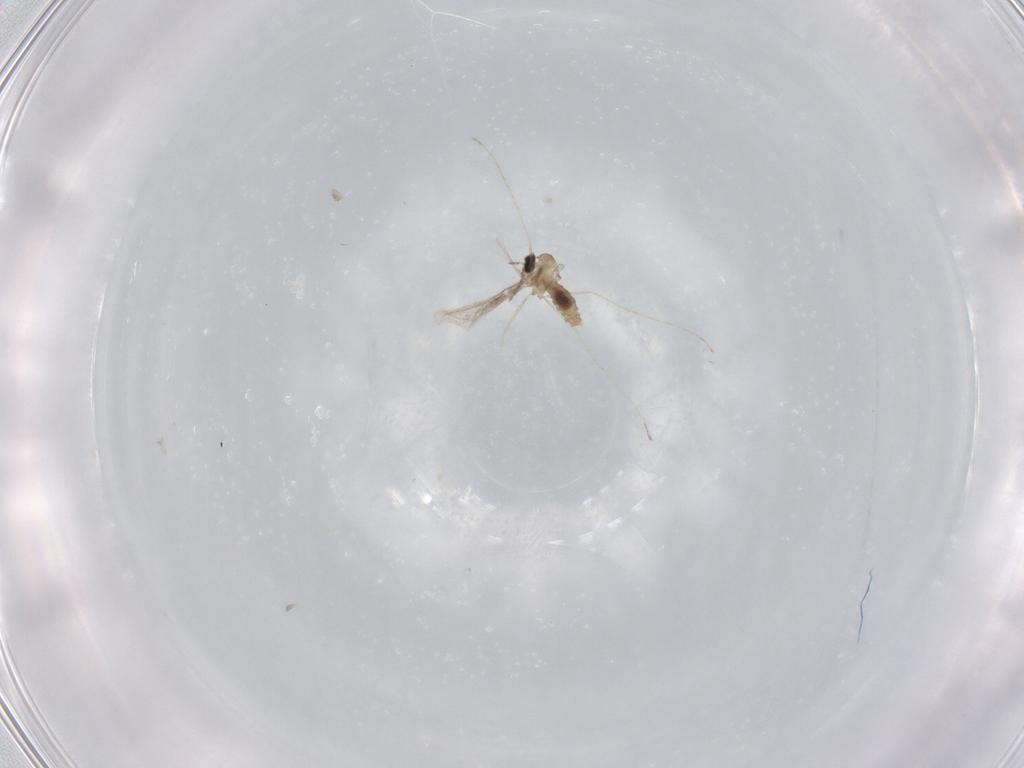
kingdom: Animalia
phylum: Arthropoda
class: Insecta
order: Diptera
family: Cecidomyiidae
